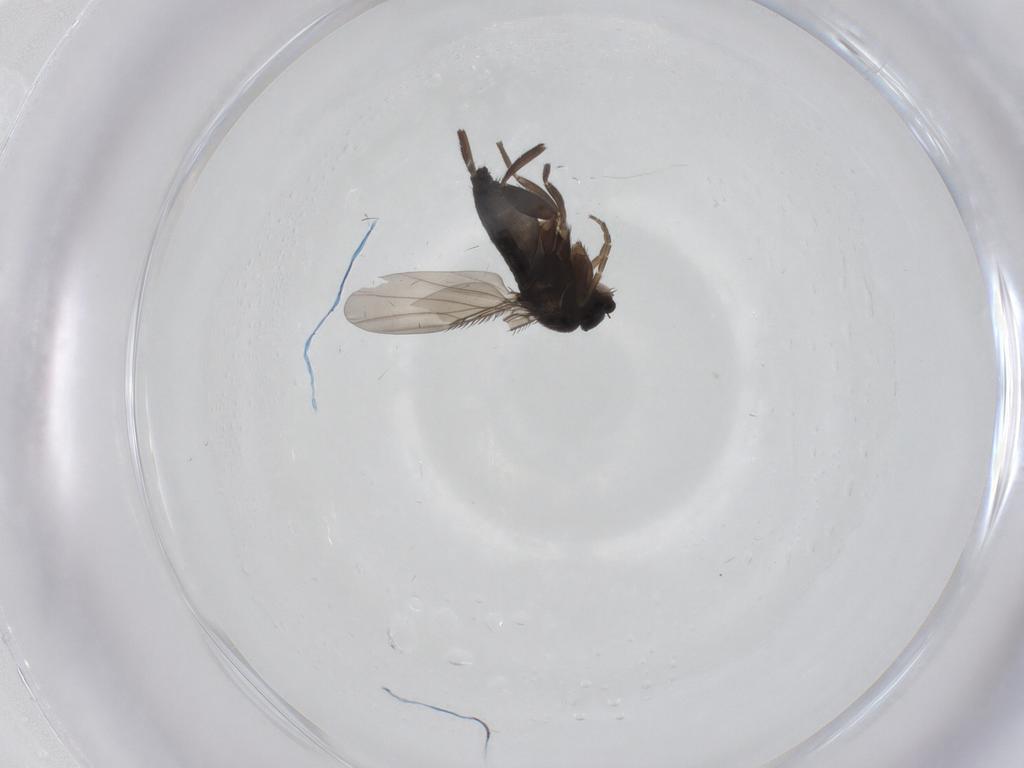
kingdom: Animalia
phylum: Arthropoda
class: Insecta
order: Diptera
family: Phoridae
